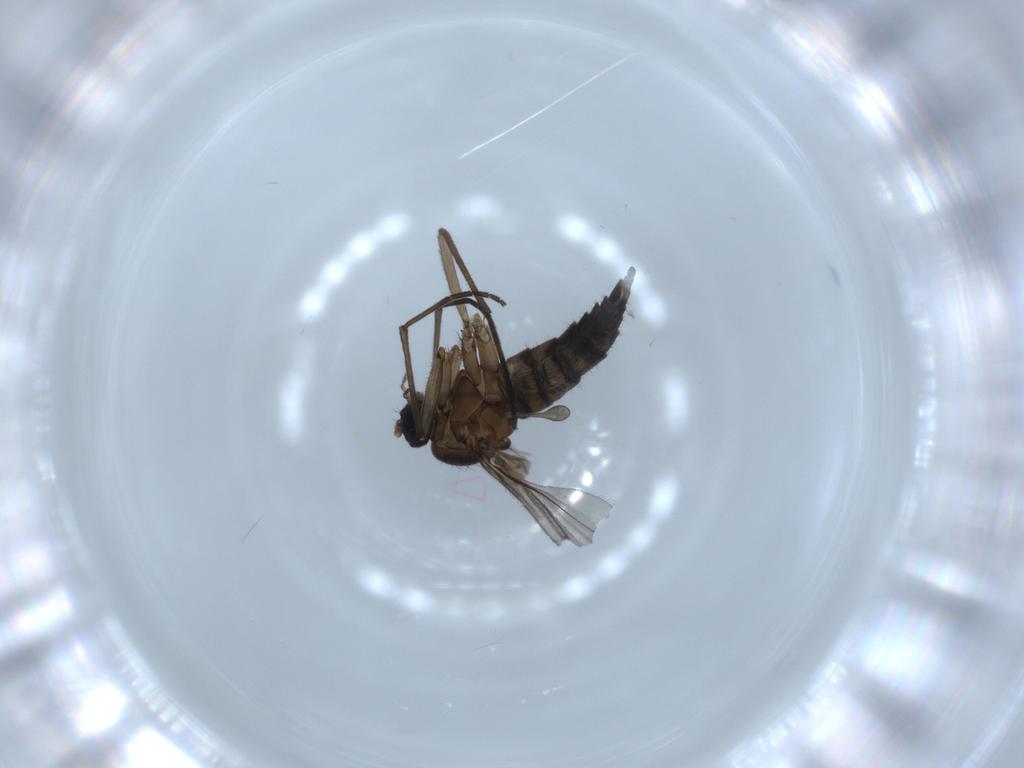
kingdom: Animalia
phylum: Arthropoda
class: Insecta
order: Diptera
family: Sciaridae
